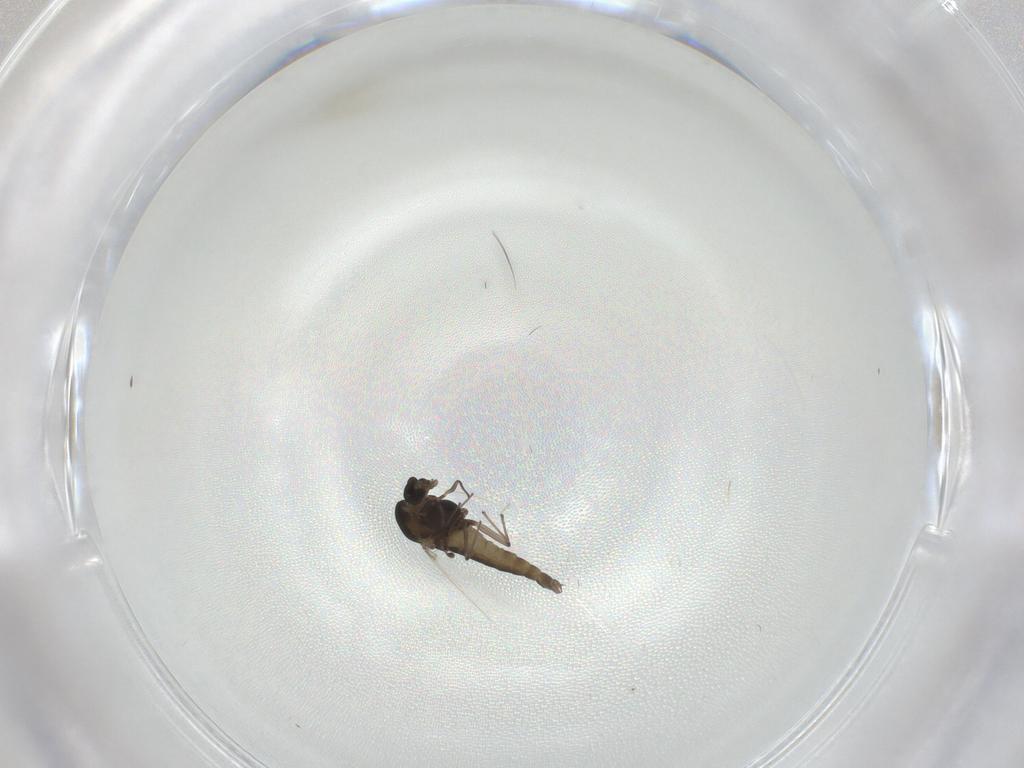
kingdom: Animalia
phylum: Arthropoda
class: Insecta
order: Diptera
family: Chironomidae
